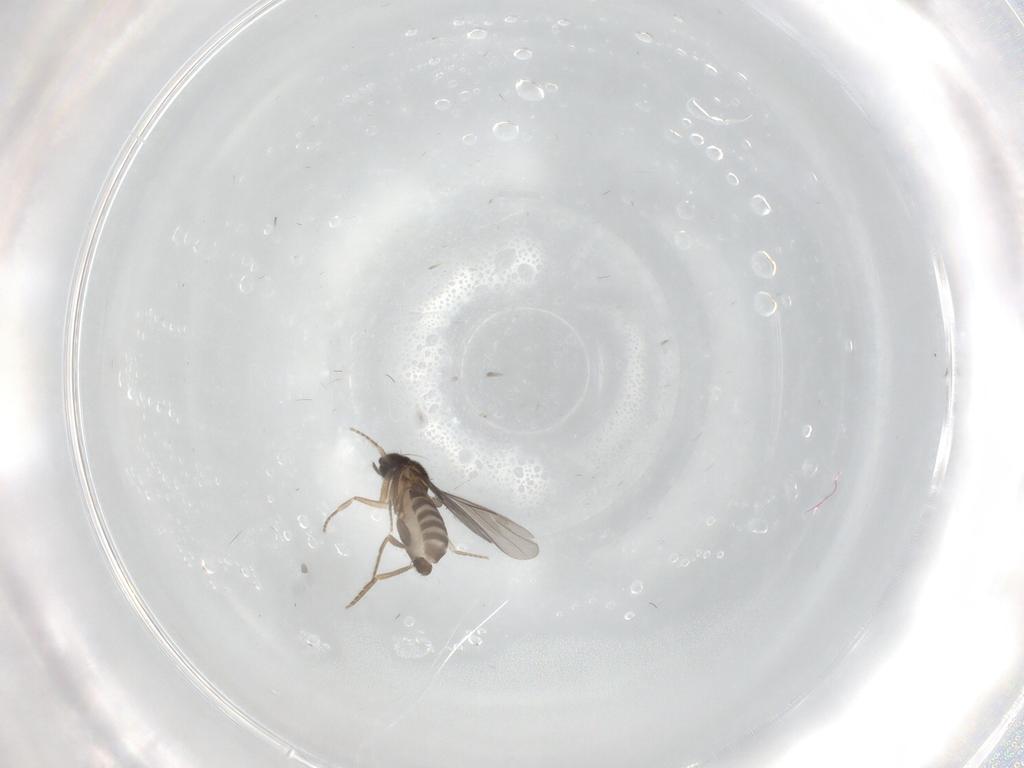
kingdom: Animalia
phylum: Arthropoda
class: Insecta
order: Diptera
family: Phoridae
